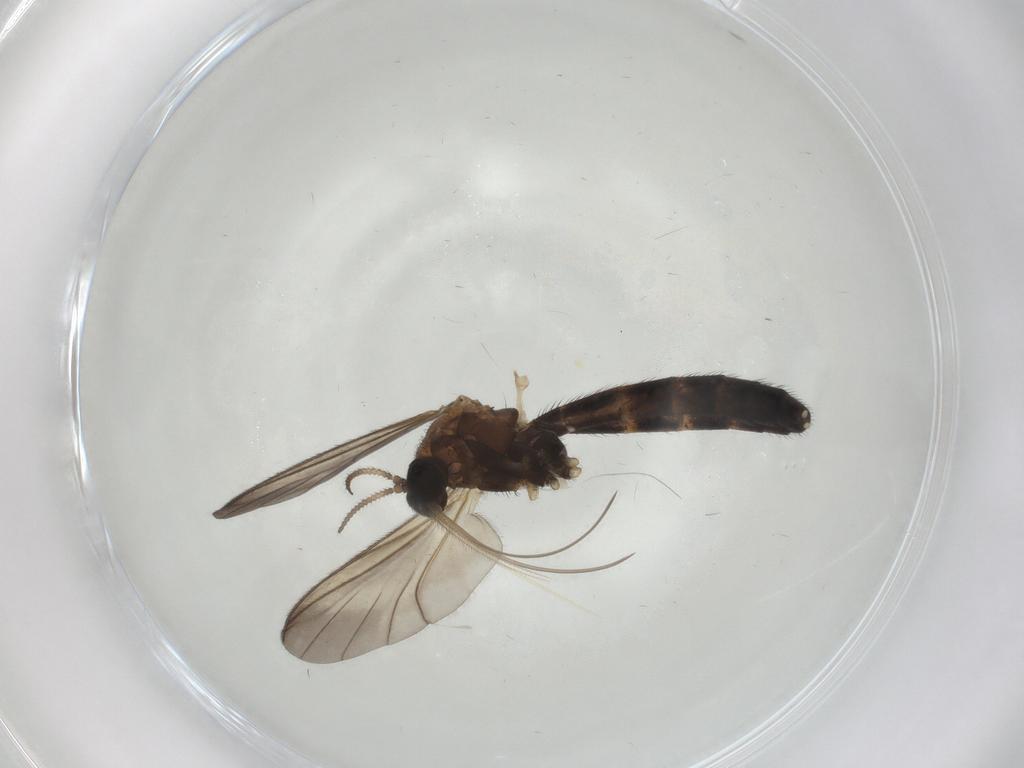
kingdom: Animalia
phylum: Arthropoda
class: Insecta
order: Diptera
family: Keroplatidae
